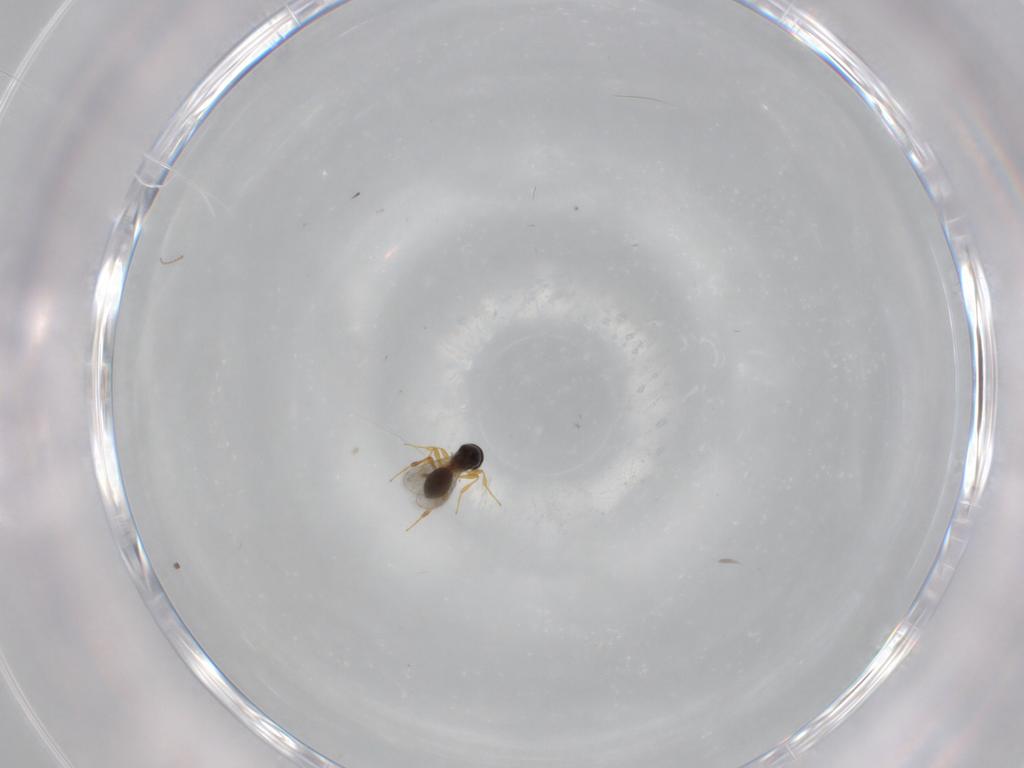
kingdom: Animalia
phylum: Arthropoda
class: Insecta
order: Hymenoptera
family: Platygastridae
